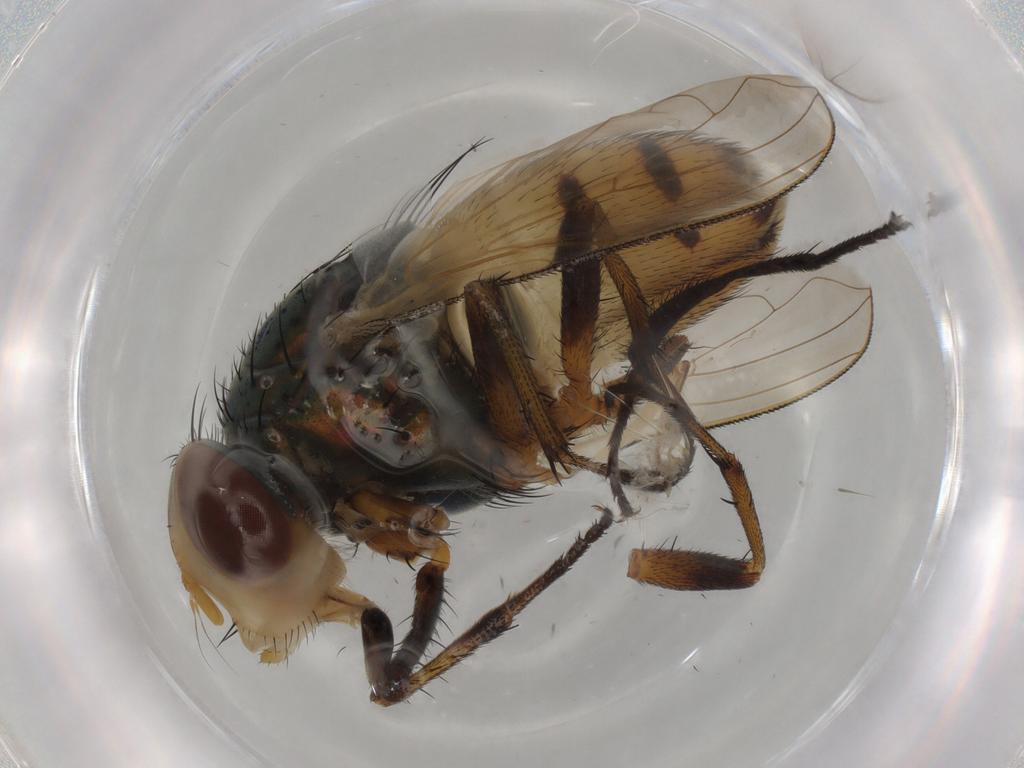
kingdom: Animalia
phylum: Arthropoda
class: Insecta
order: Diptera
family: Calliphoridae
